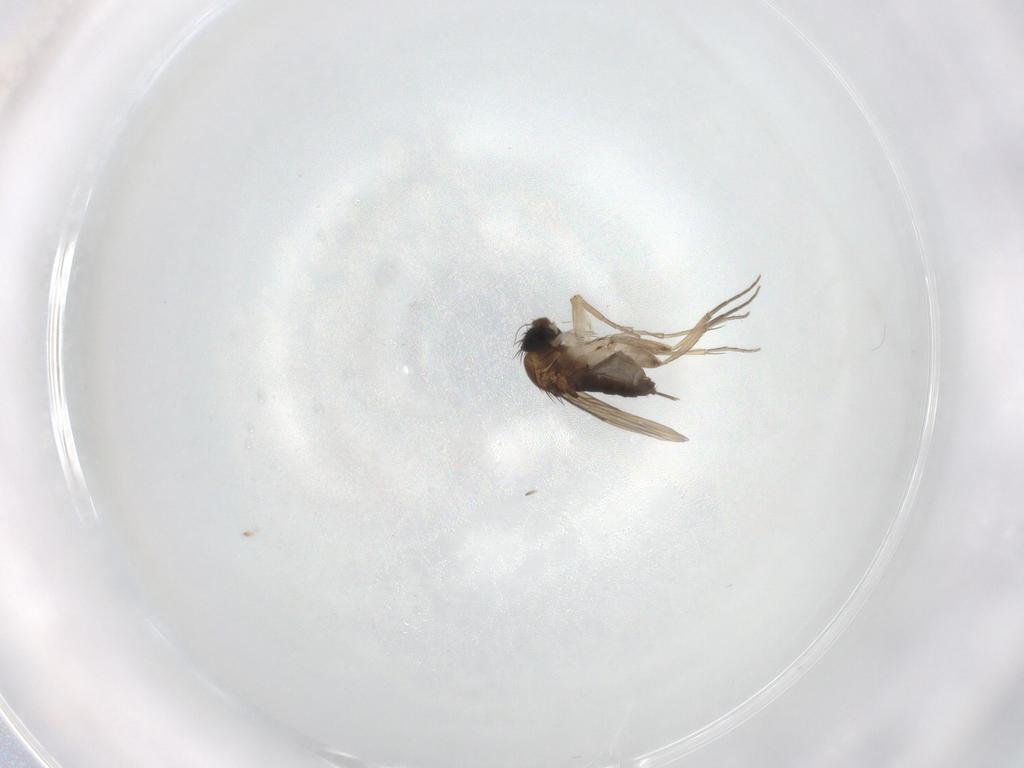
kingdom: Animalia
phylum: Arthropoda
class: Insecta
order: Diptera
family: Phoridae
